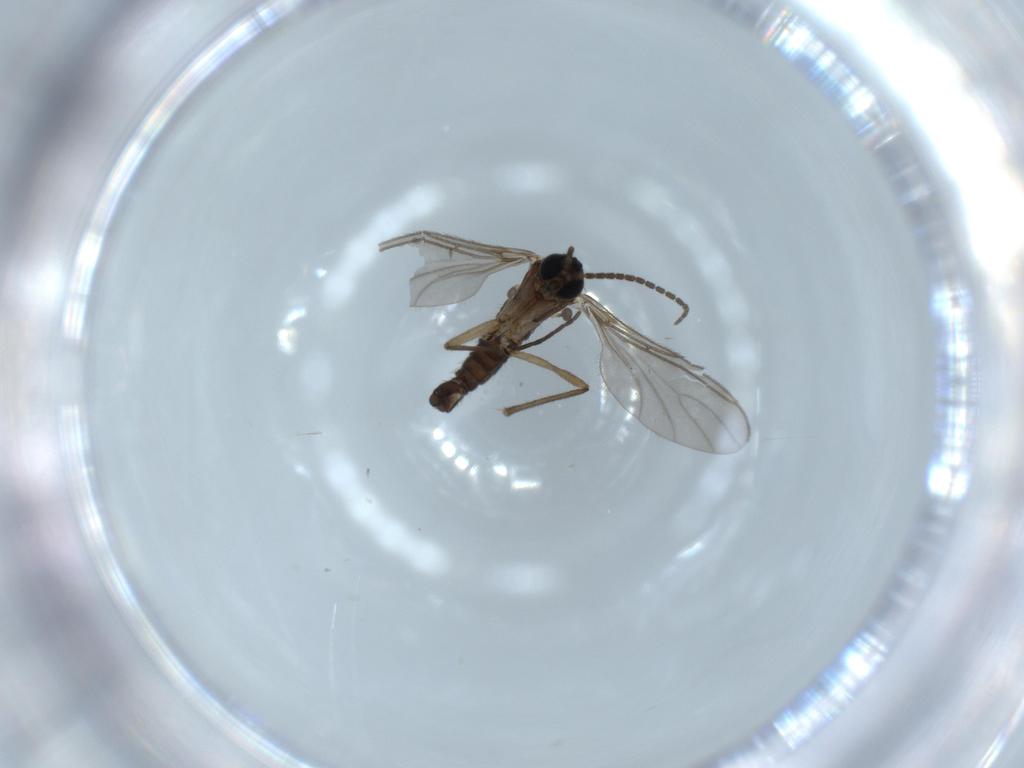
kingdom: Animalia
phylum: Arthropoda
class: Insecta
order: Diptera
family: Sciaridae
